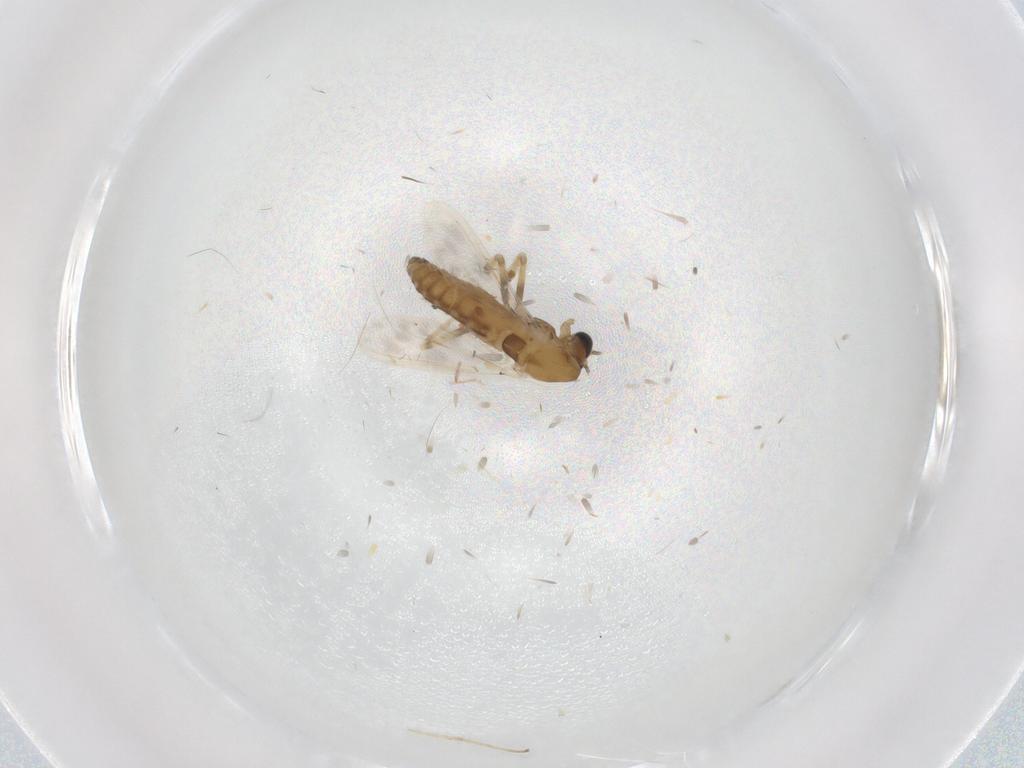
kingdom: Animalia
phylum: Arthropoda
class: Insecta
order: Diptera
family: Chironomidae
